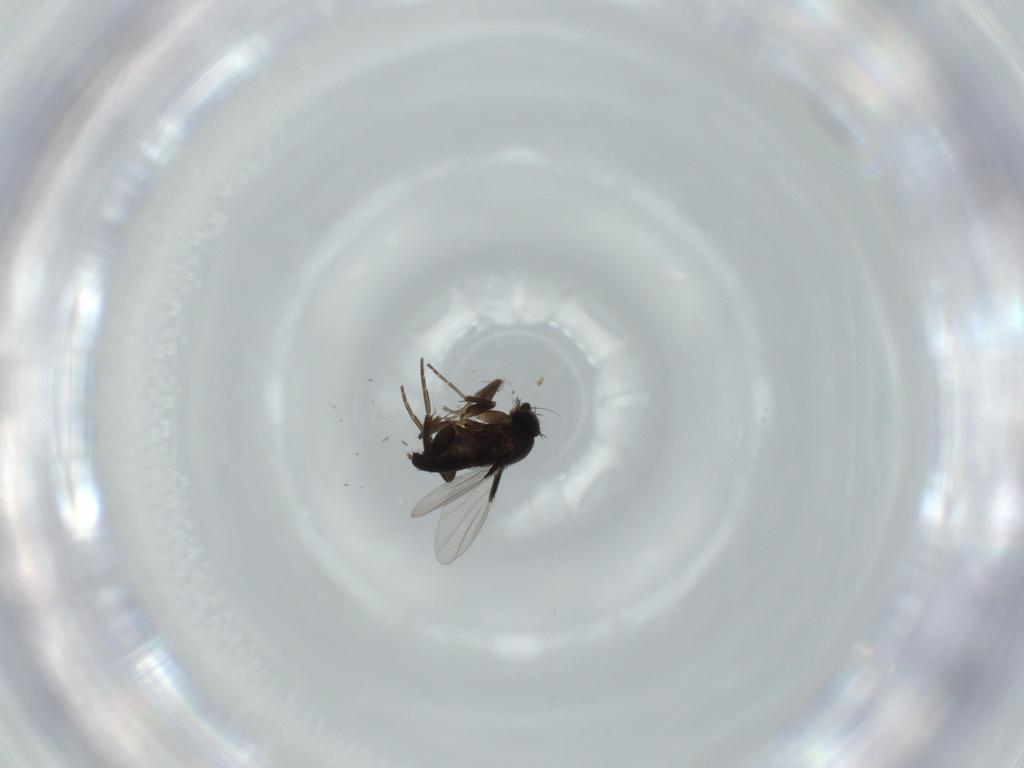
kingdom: Animalia
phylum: Arthropoda
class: Insecta
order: Diptera
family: Phoridae
